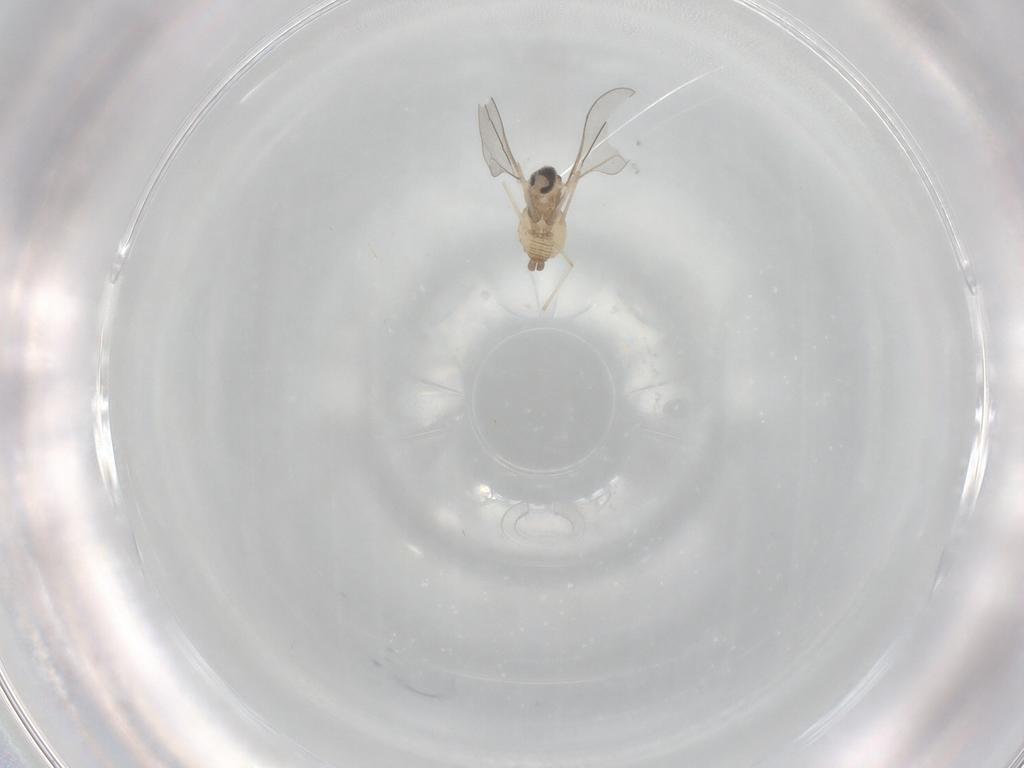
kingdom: Animalia
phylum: Arthropoda
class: Insecta
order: Diptera
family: Cecidomyiidae
